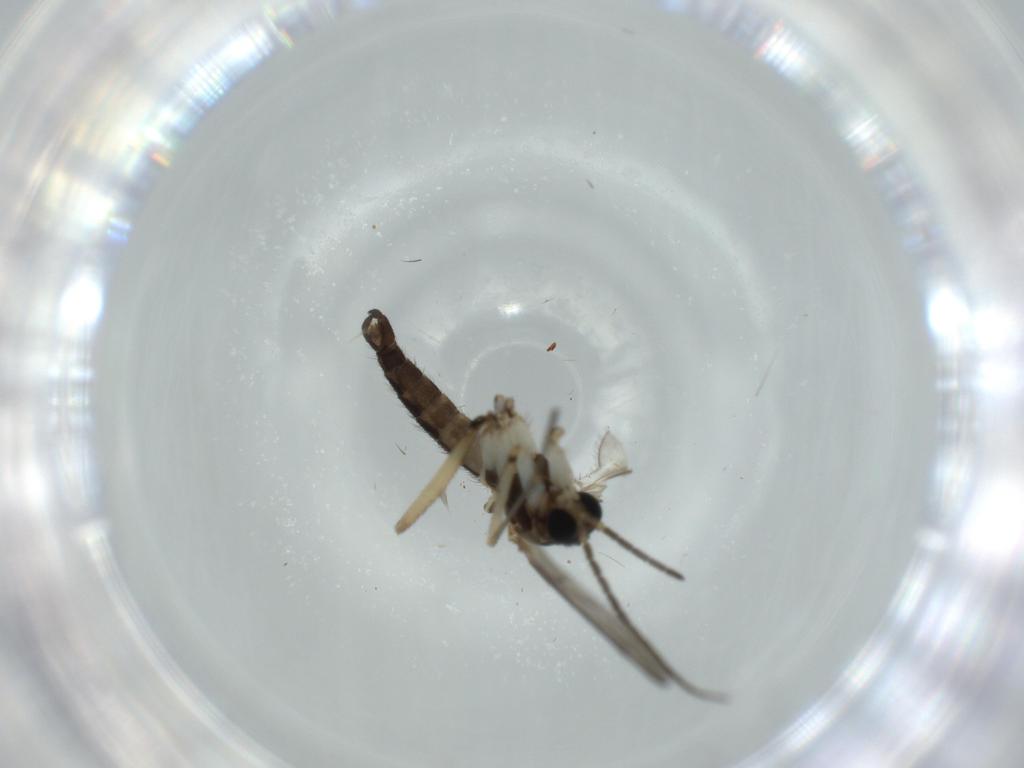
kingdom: Animalia
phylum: Arthropoda
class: Insecta
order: Diptera
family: Sciaridae
